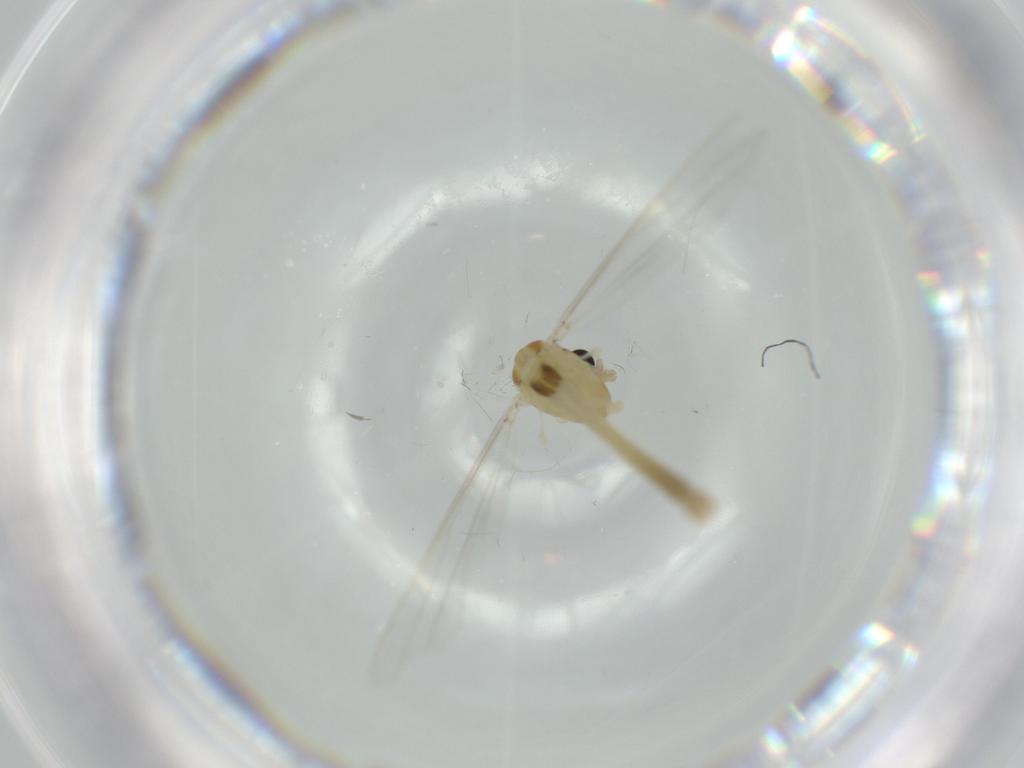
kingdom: Animalia
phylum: Arthropoda
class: Insecta
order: Diptera
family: Chironomidae
